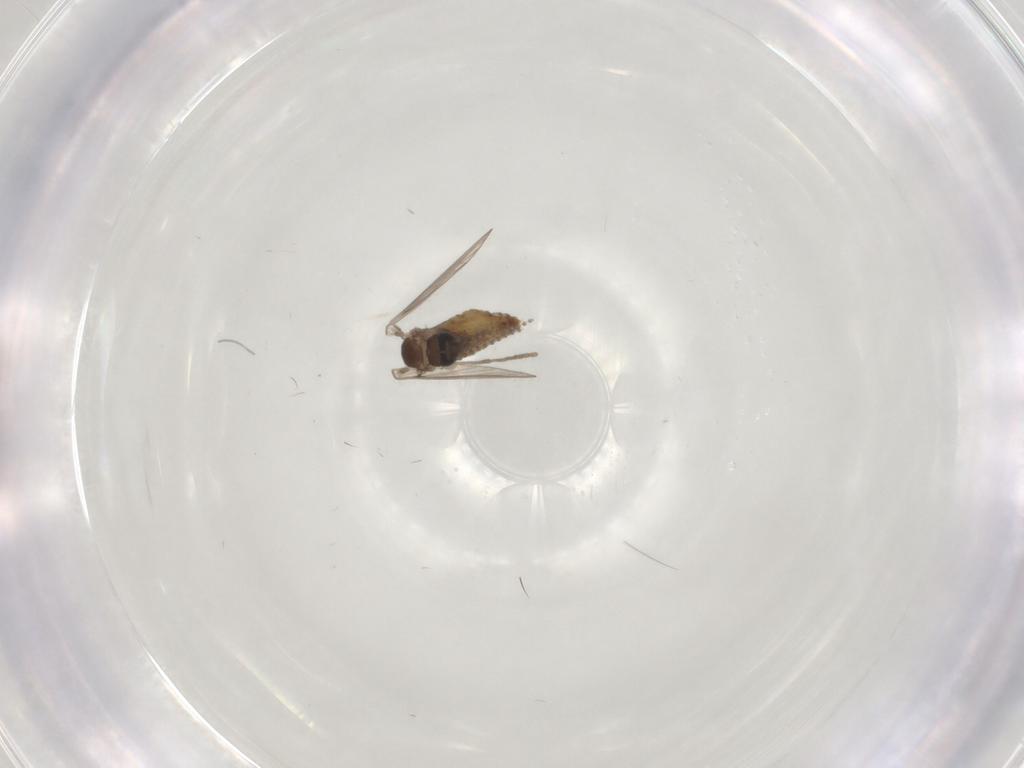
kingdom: Animalia
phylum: Arthropoda
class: Insecta
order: Diptera
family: Psychodidae
